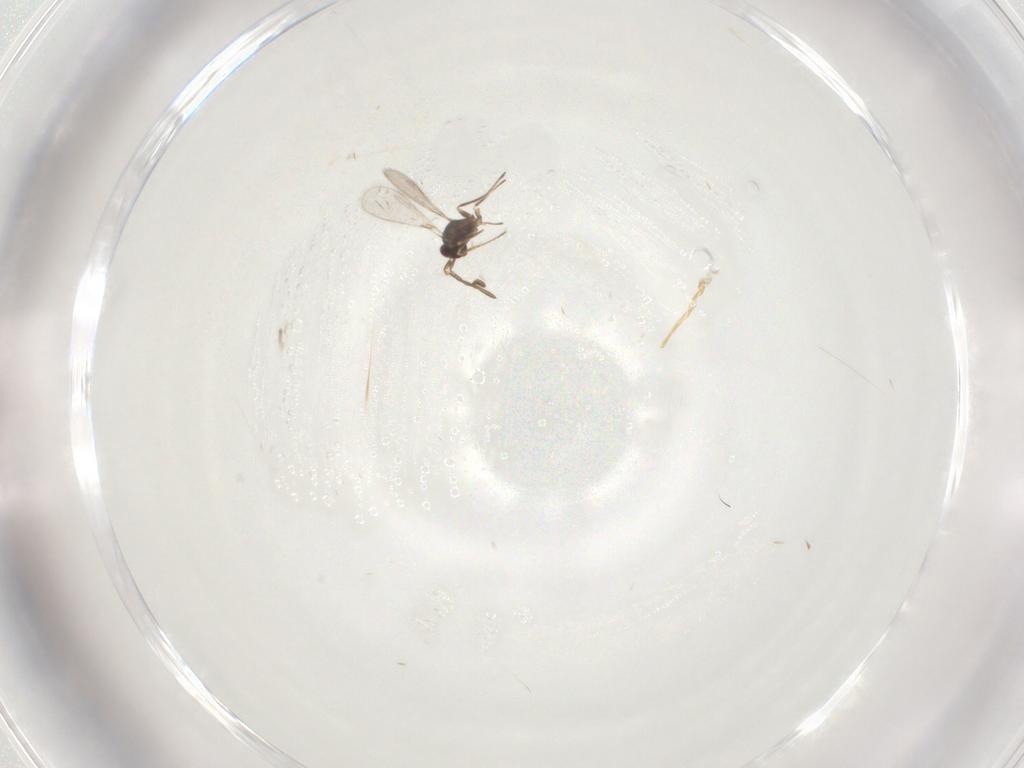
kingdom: Animalia
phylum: Arthropoda
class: Insecta
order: Hymenoptera
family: Mymaridae
